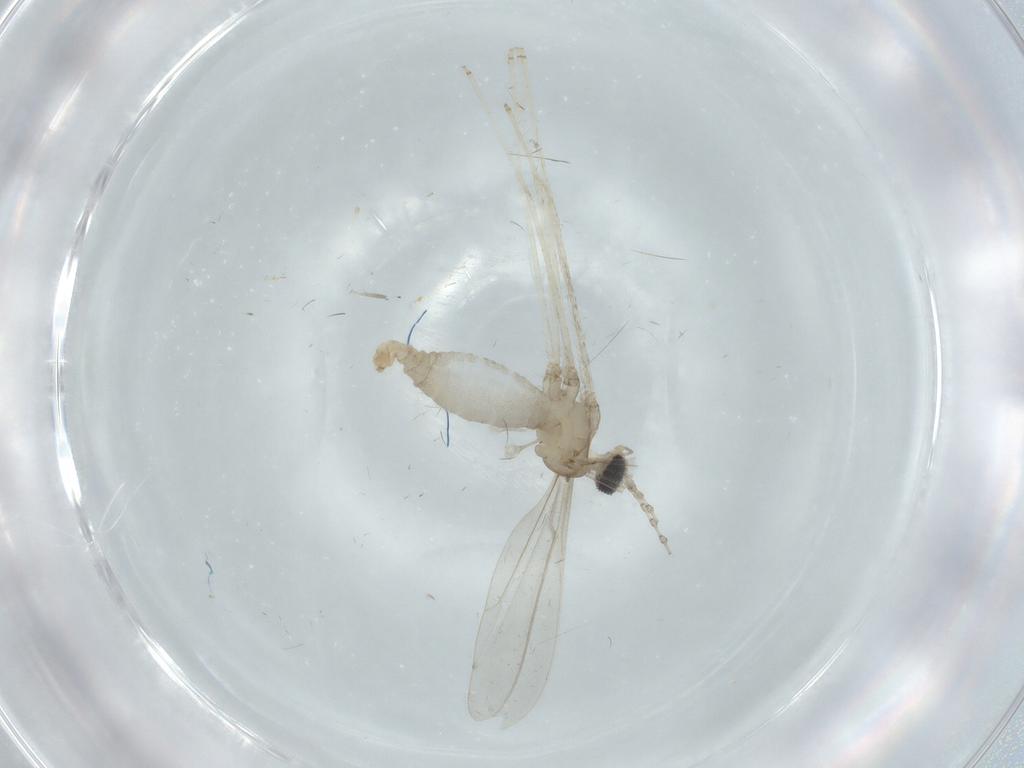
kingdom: Animalia
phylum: Arthropoda
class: Insecta
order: Diptera
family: Cecidomyiidae
